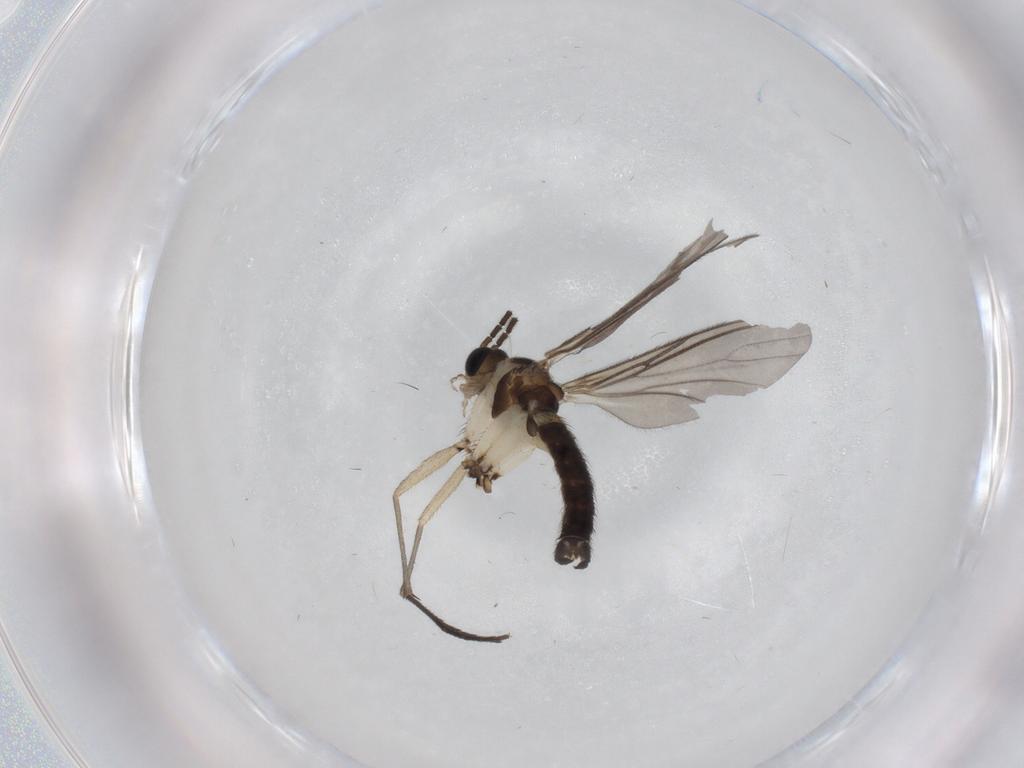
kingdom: Animalia
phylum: Arthropoda
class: Insecta
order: Diptera
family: Sciaridae
